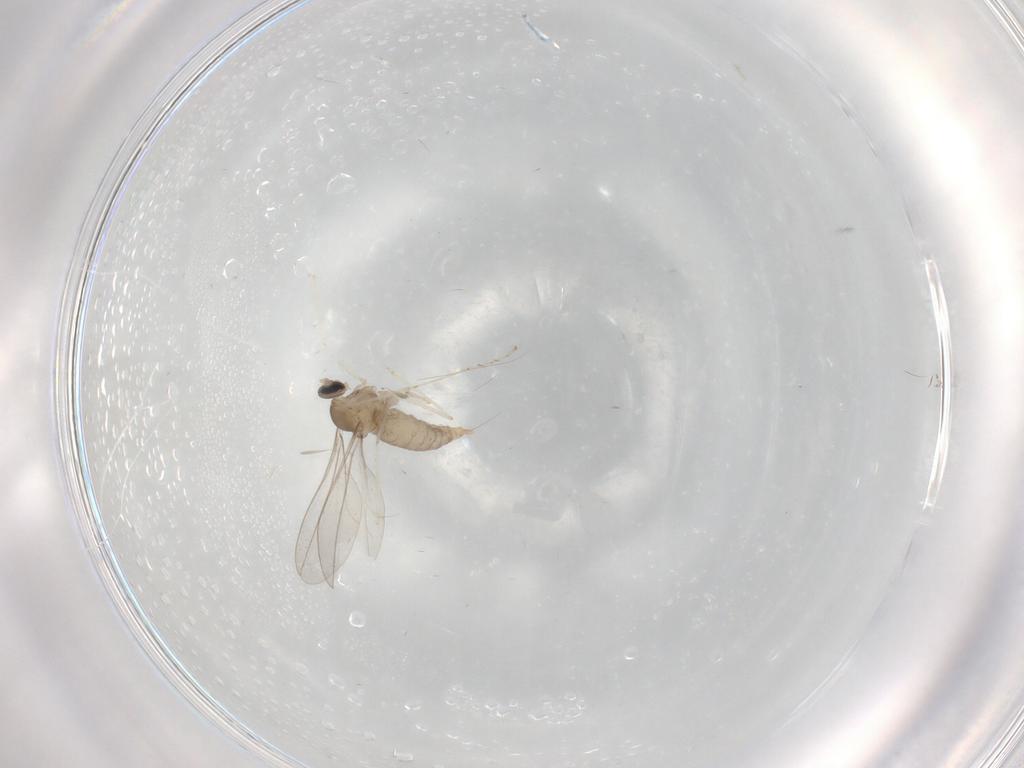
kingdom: Animalia
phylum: Arthropoda
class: Insecta
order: Diptera
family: Cecidomyiidae
